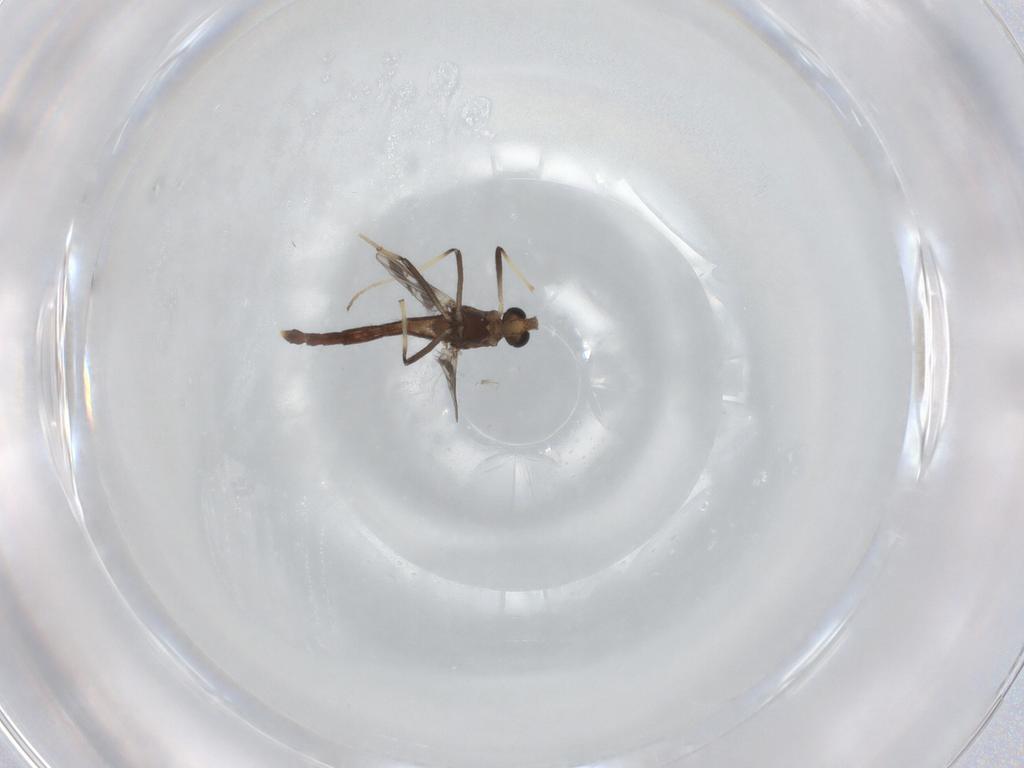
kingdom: Animalia
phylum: Arthropoda
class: Insecta
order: Diptera
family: Chironomidae
